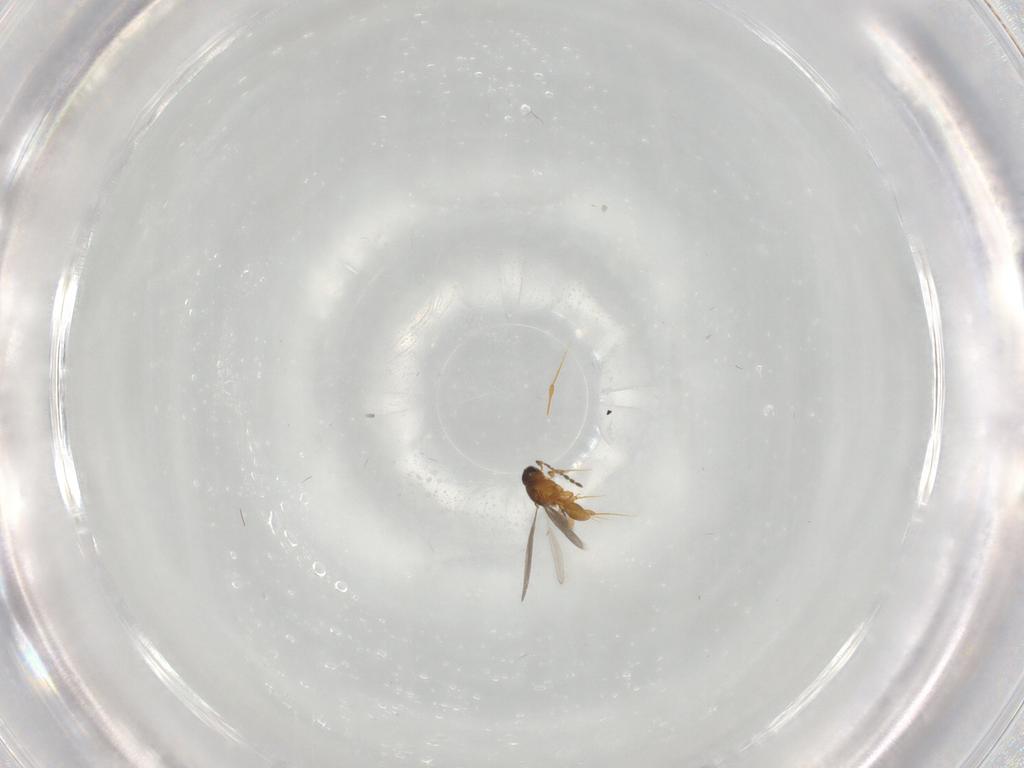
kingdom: Animalia
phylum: Arthropoda
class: Insecta
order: Hymenoptera
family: Platygastridae
